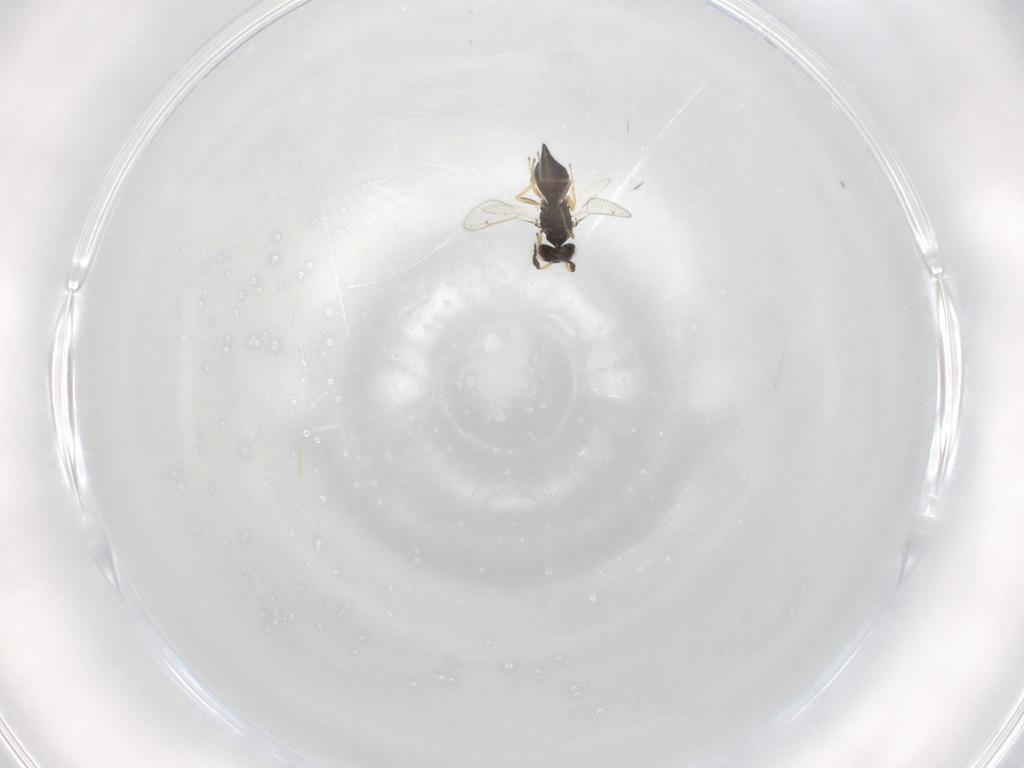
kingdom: Animalia
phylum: Arthropoda
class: Insecta
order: Hymenoptera
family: Eulophidae
